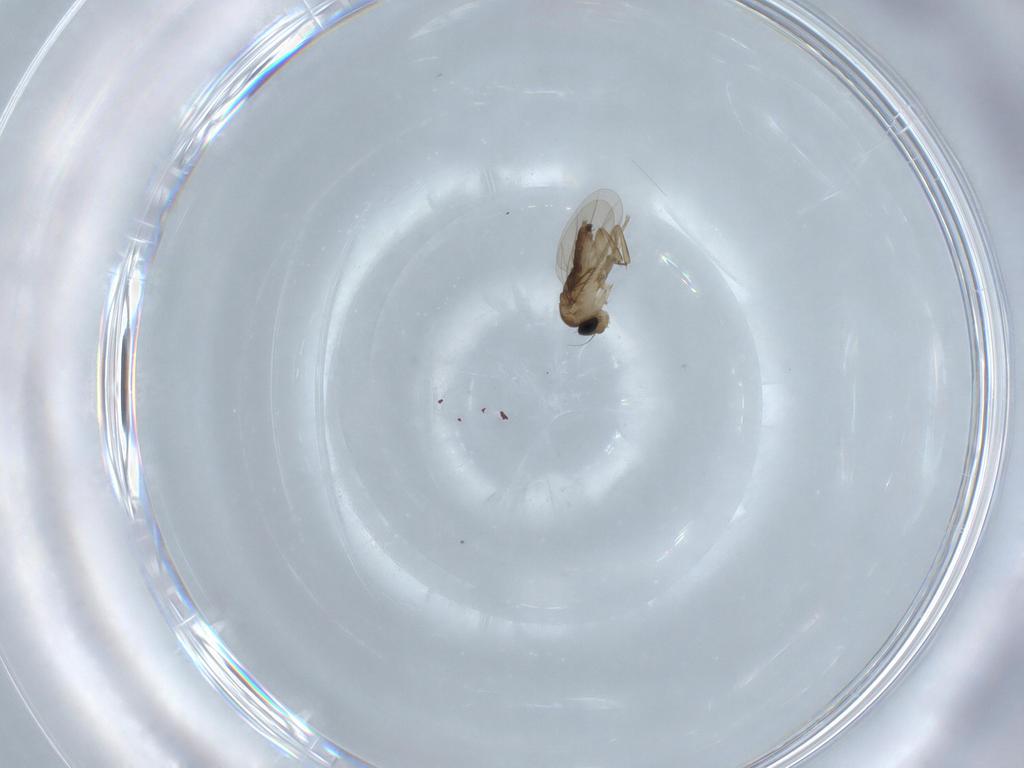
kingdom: Animalia
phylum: Arthropoda
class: Insecta
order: Diptera
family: Phoridae
